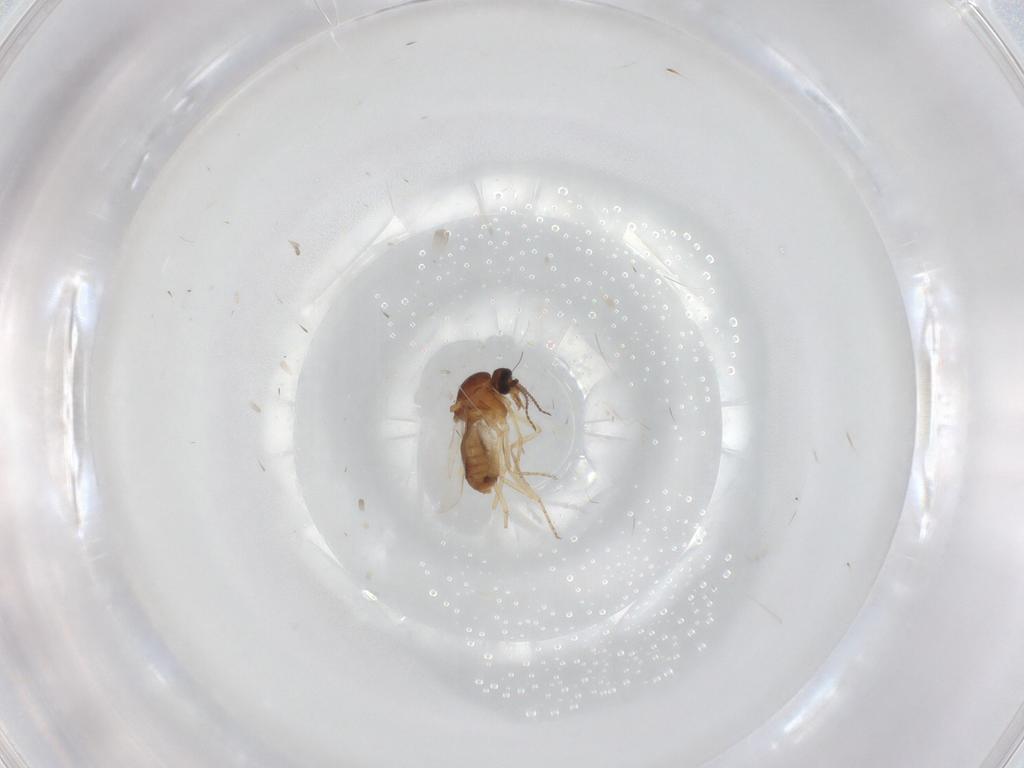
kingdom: Animalia
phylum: Arthropoda
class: Insecta
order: Diptera
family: Ceratopogonidae
